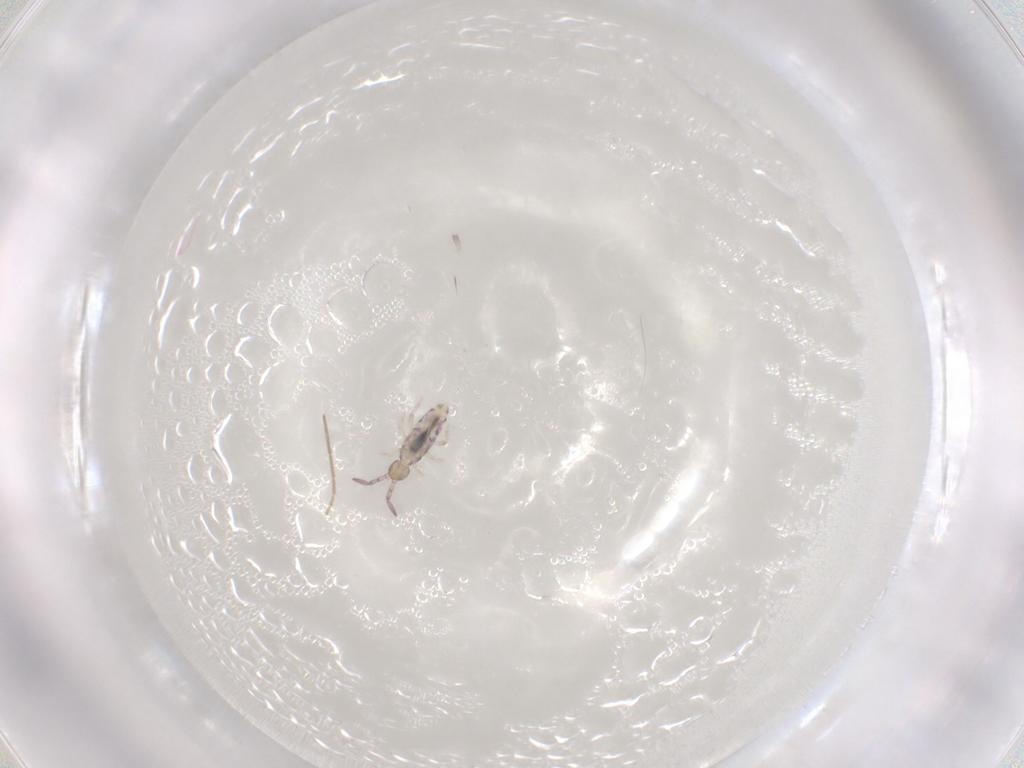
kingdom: Animalia
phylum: Arthropoda
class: Collembola
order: Entomobryomorpha
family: Entomobryidae
